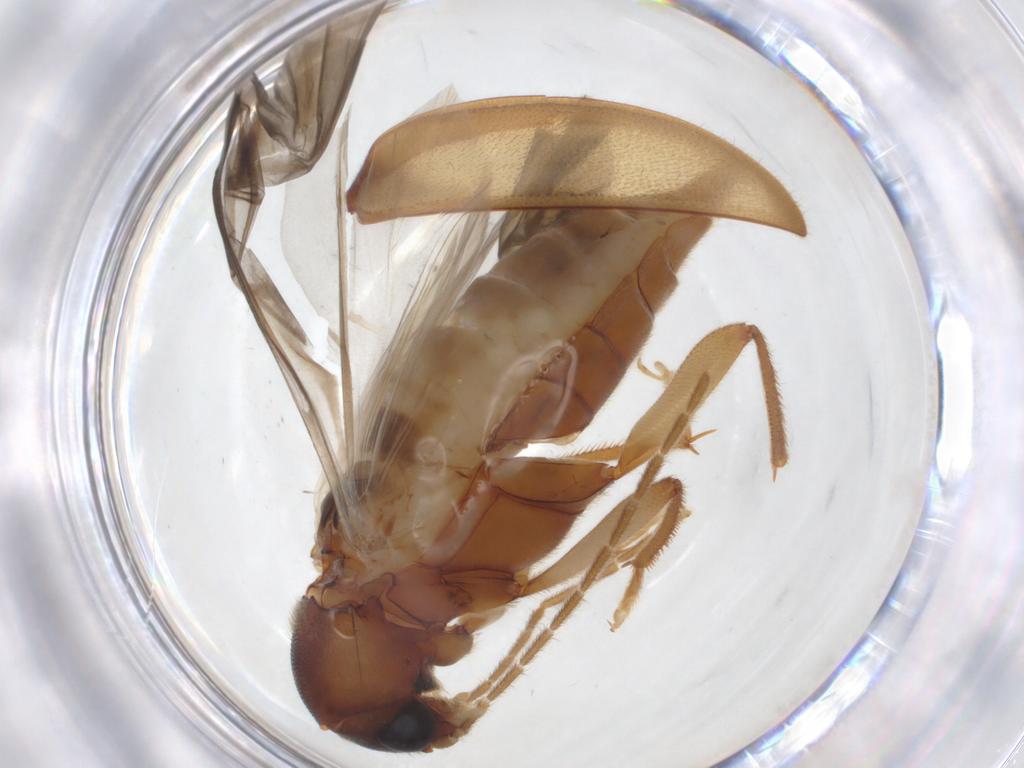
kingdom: Animalia
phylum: Arthropoda
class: Insecta
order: Coleoptera
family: Ptilodactylidae
